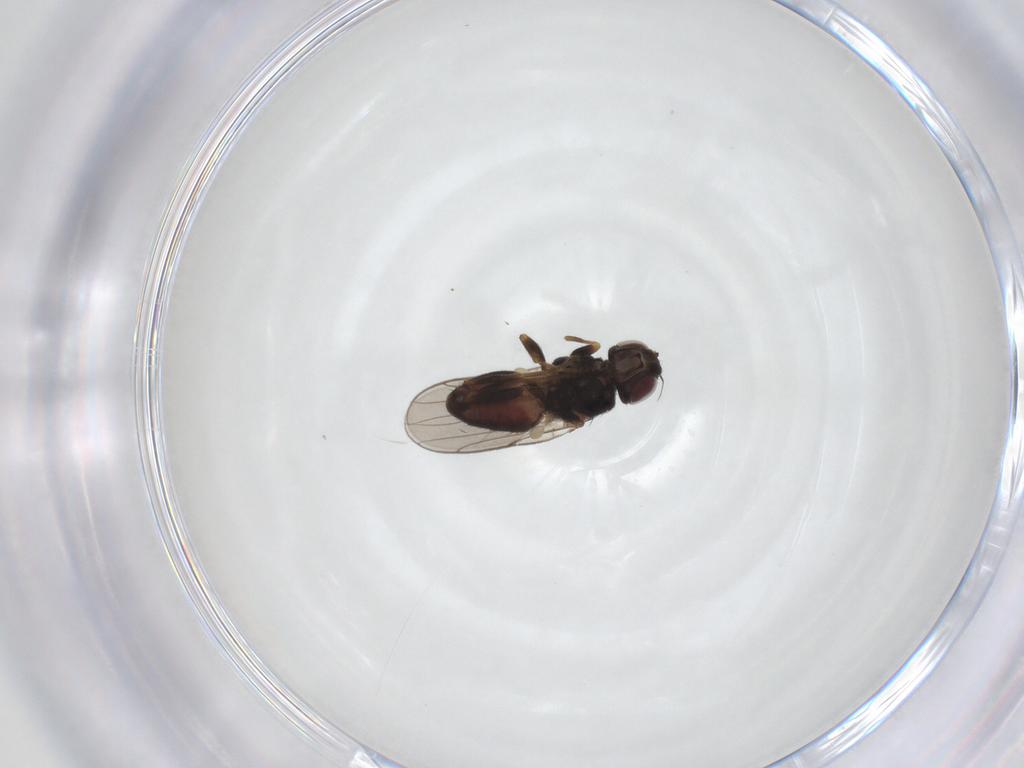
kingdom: Animalia
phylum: Arthropoda
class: Insecta
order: Diptera
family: Chloropidae
